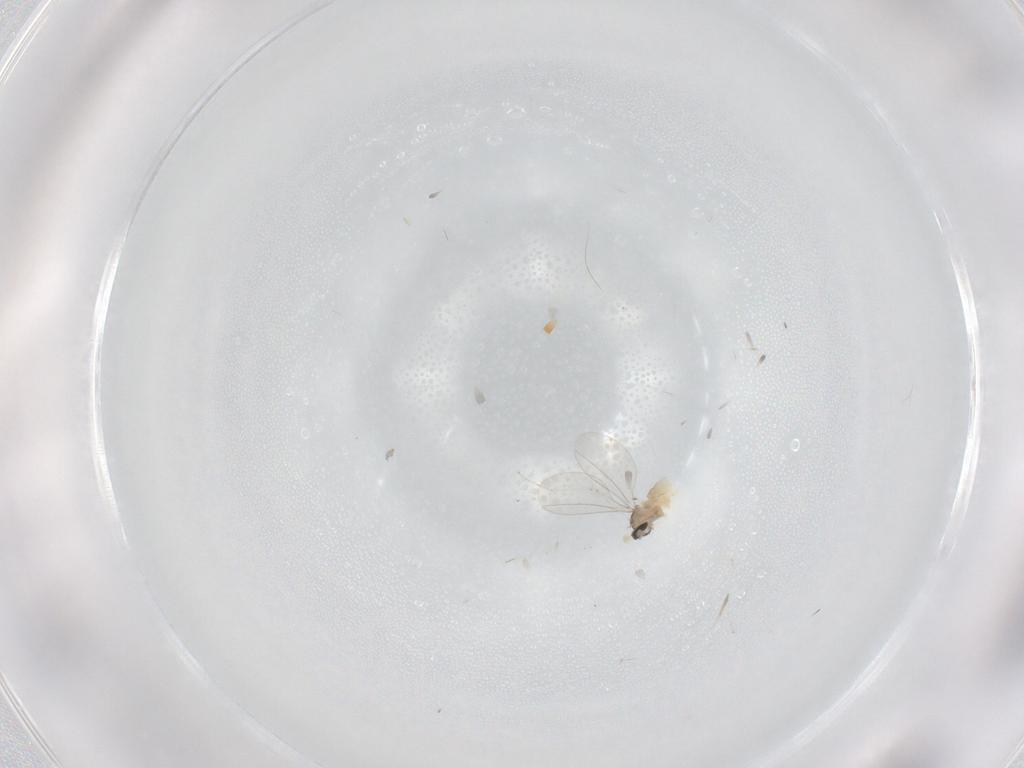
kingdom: Animalia
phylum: Arthropoda
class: Insecta
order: Diptera
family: Cecidomyiidae
